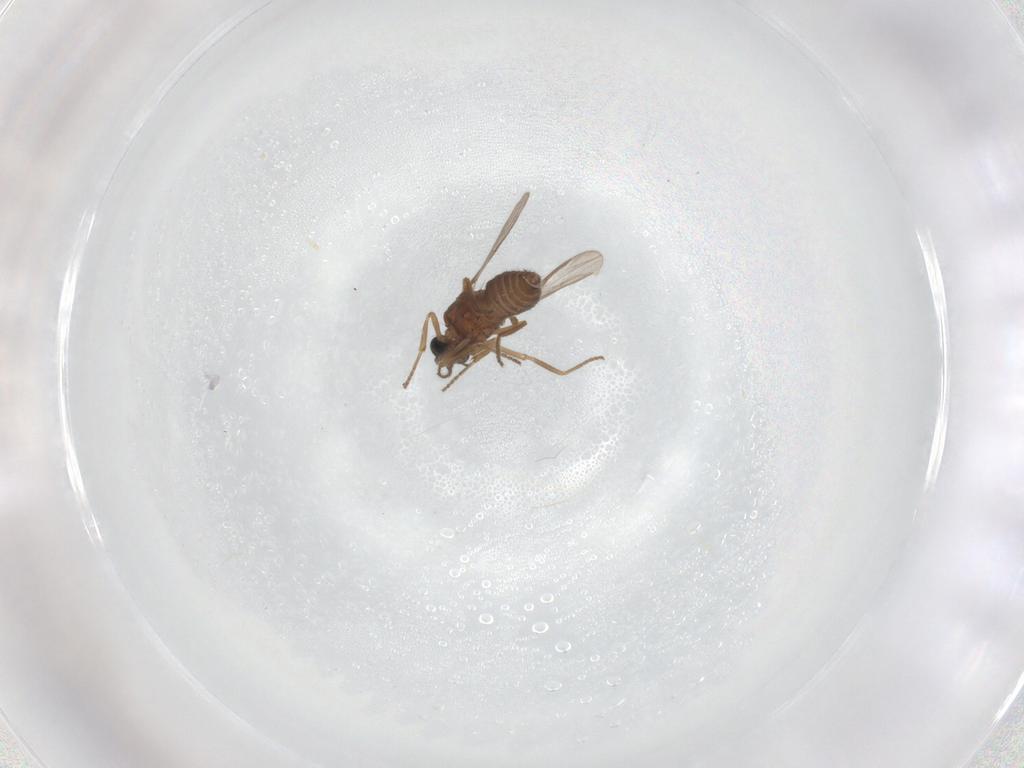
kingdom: Animalia
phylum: Arthropoda
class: Insecta
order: Diptera
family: Ceratopogonidae
